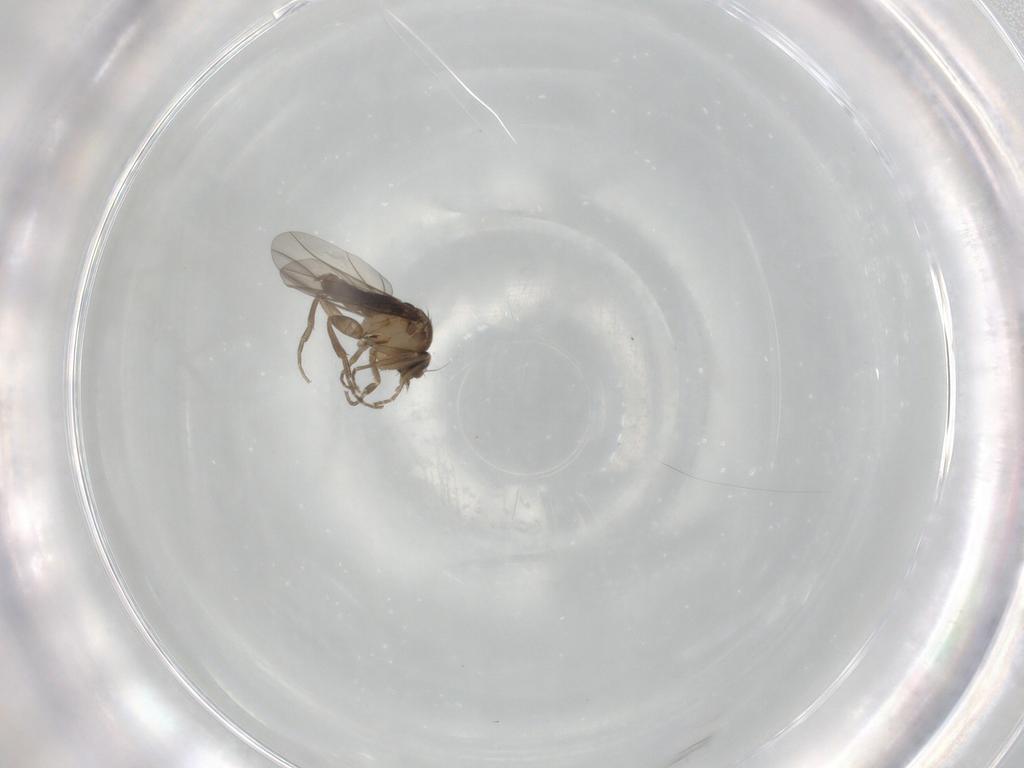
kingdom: Animalia
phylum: Arthropoda
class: Insecta
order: Diptera
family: Phoridae
